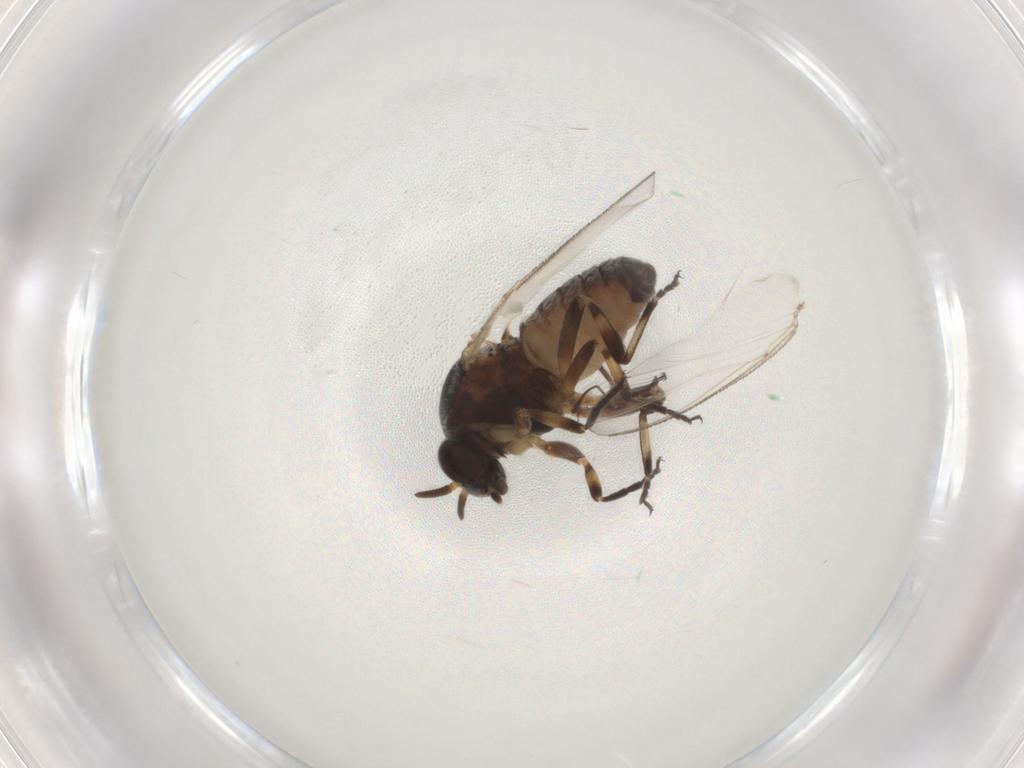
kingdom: Animalia
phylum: Arthropoda
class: Insecta
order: Diptera
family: Cecidomyiidae
